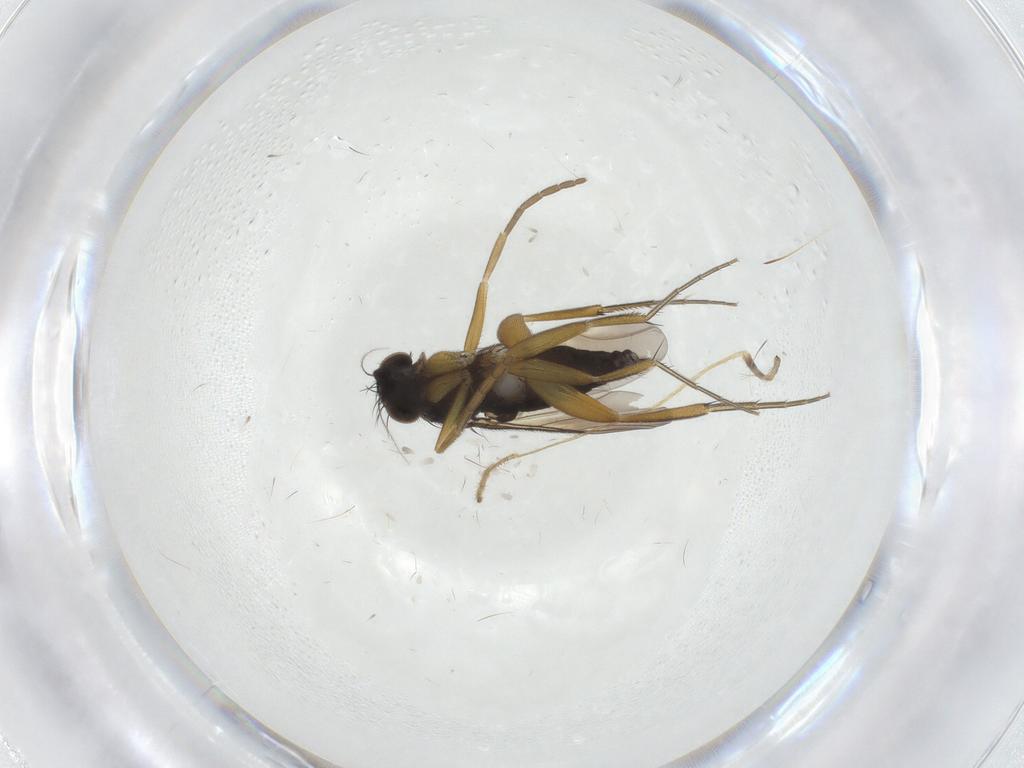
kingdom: Animalia
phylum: Arthropoda
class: Insecta
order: Diptera
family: Limoniidae
